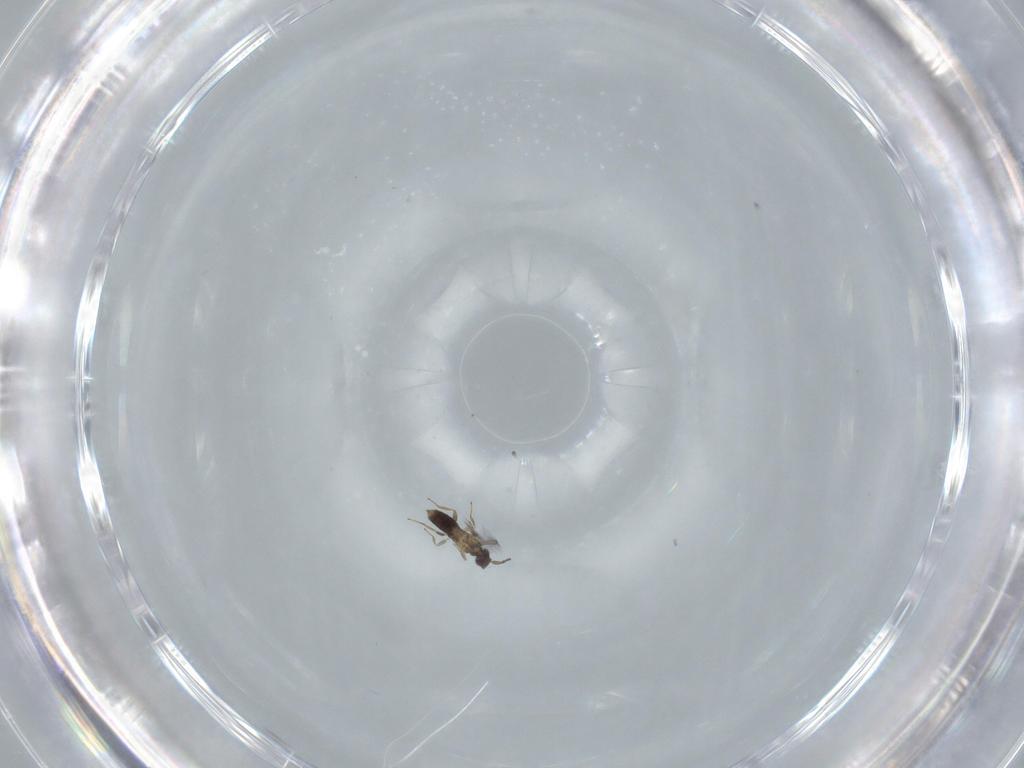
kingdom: Animalia
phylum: Arthropoda
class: Insecta
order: Hymenoptera
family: Mymaridae
